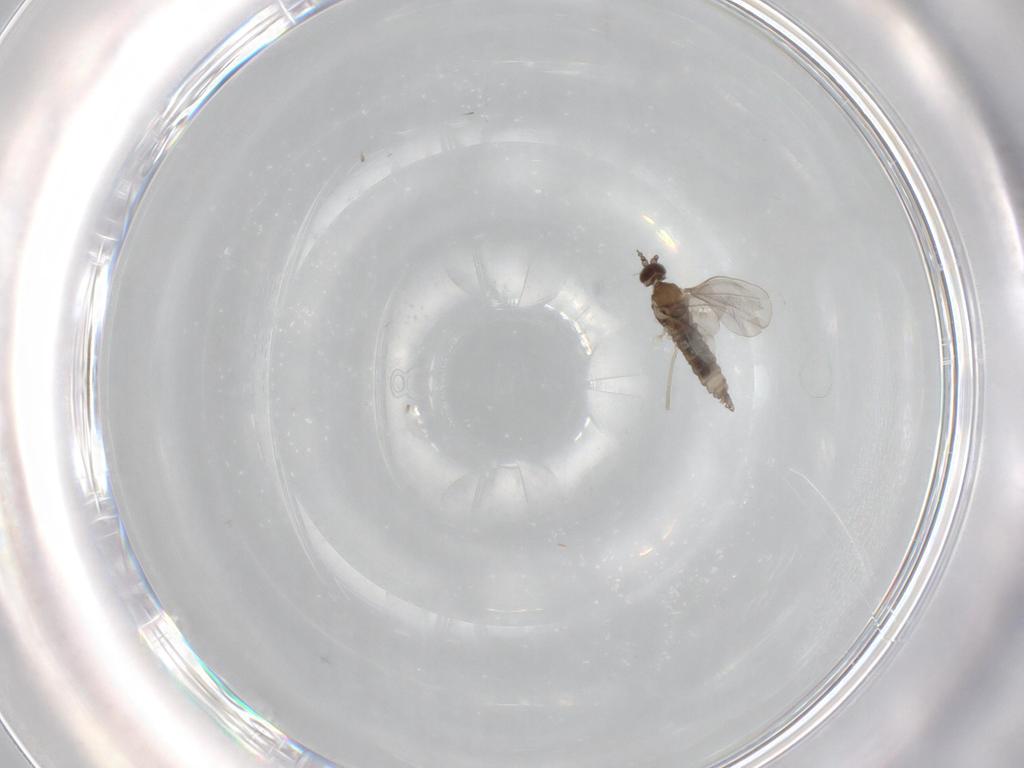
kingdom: Animalia
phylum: Arthropoda
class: Insecta
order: Diptera
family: Cecidomyiidae
